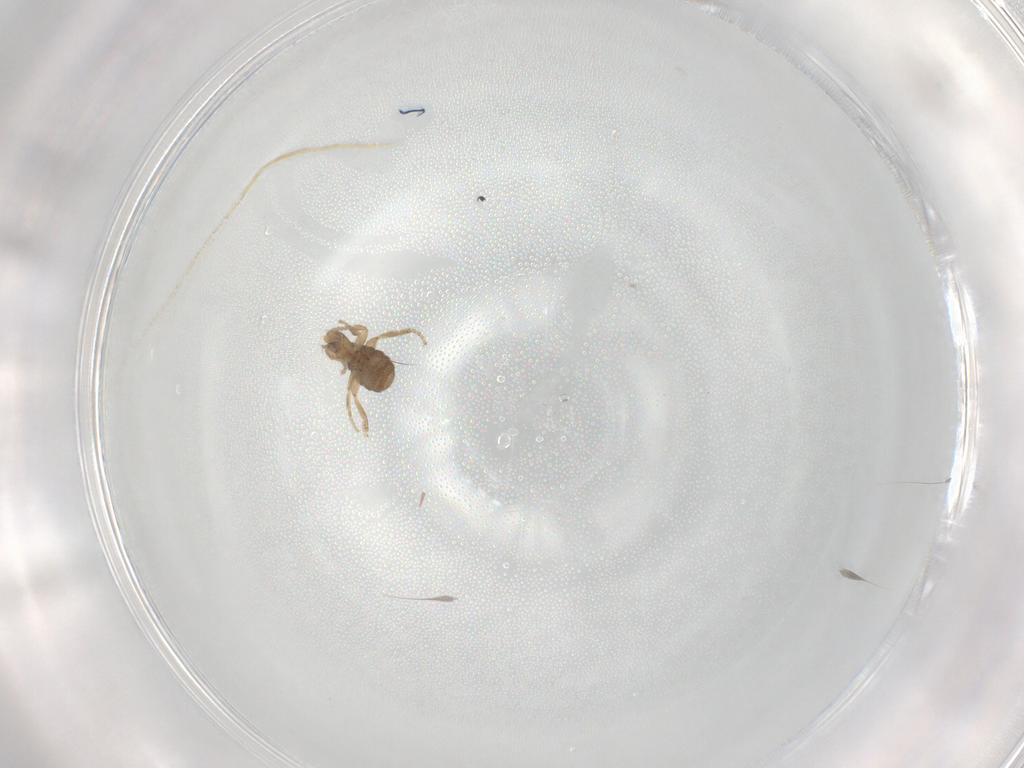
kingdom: Animalia
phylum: Arthropoda
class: Insecta
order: Diptera
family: Phoridae
